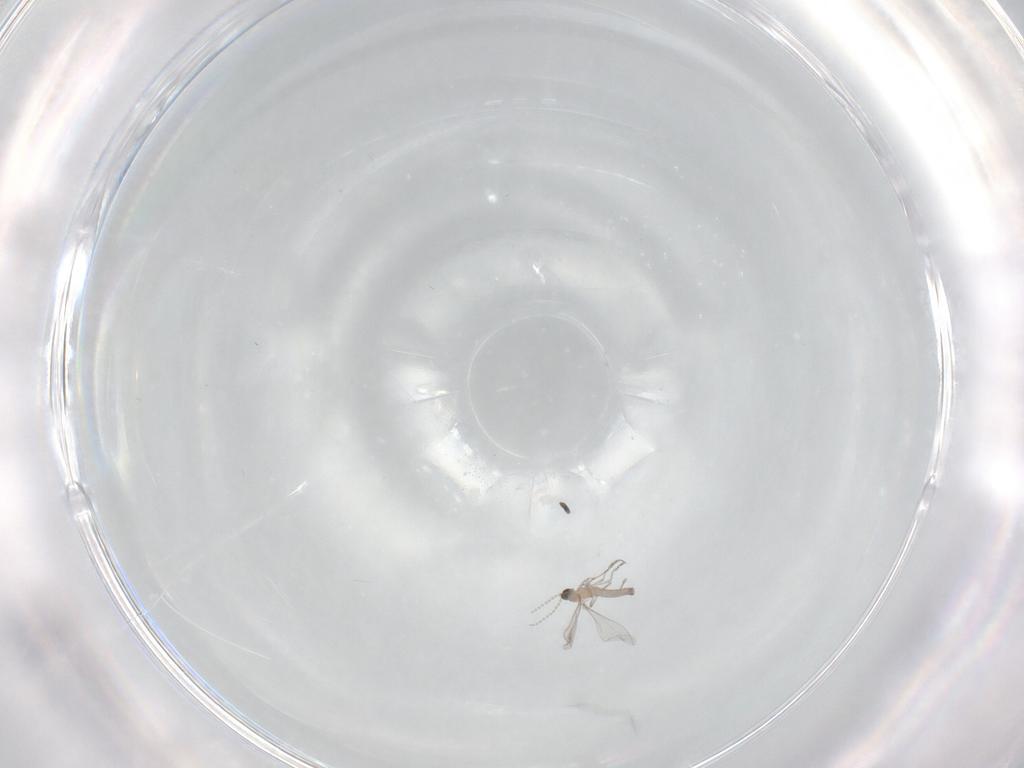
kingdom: Animalia
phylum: Arthropoda
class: Insecta
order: Diptera
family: Cecidomyiidae
